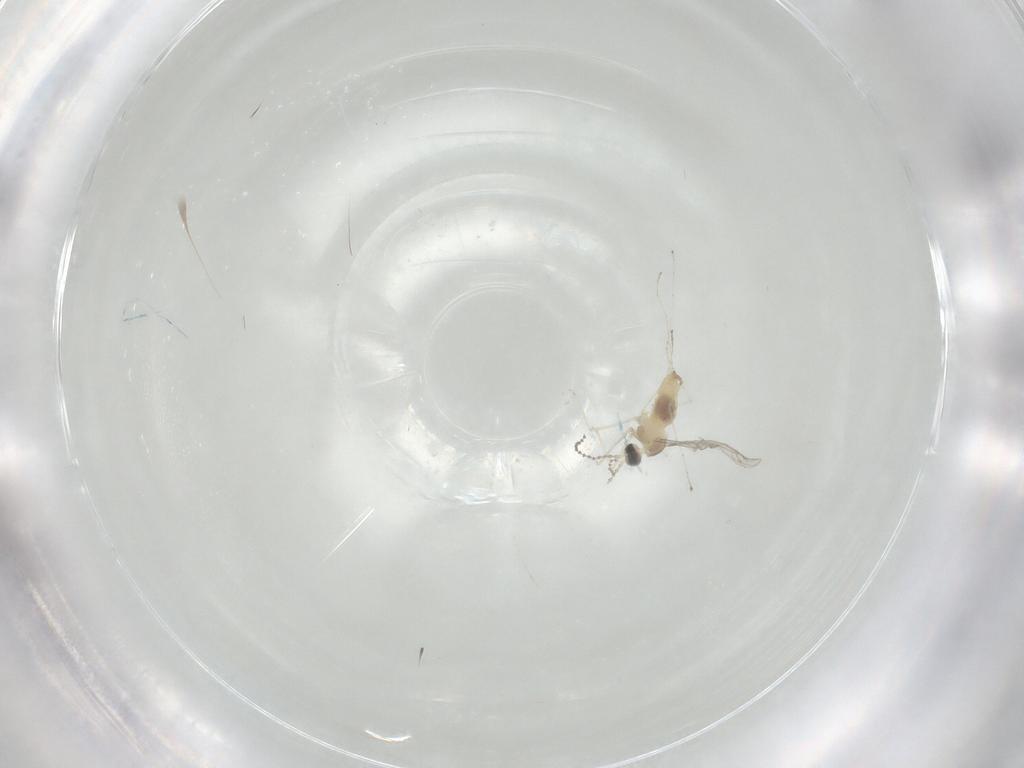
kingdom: Animalia
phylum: Arthropoda
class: Insecta
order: Diptera
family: Cecidomyiidae
